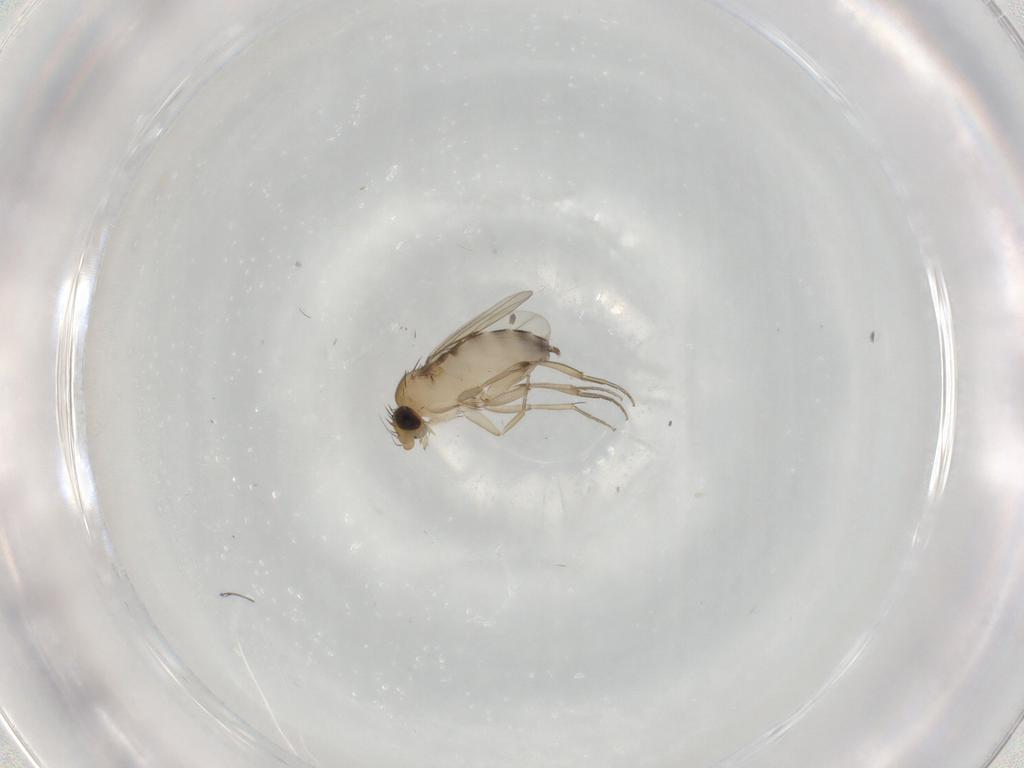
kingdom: Animalia
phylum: Arthropoda
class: Insecta
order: Diptera
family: Phoridae
